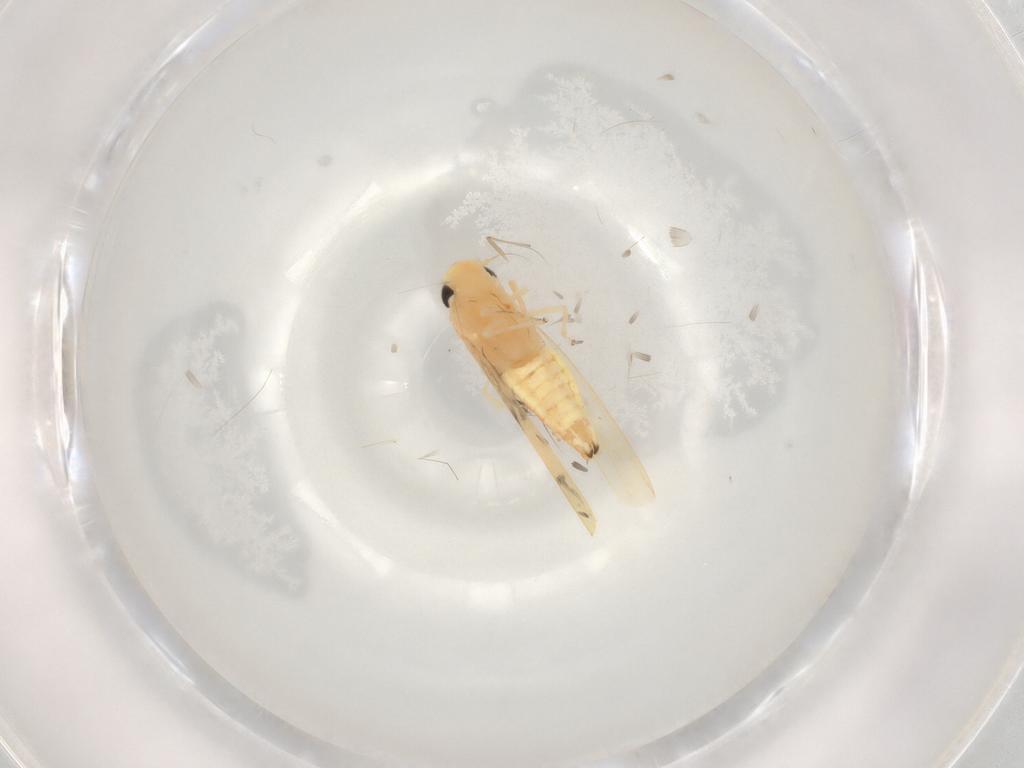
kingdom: Animalia
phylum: Arthropoda
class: Insecta
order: Hemiptera
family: Cicadellidae
